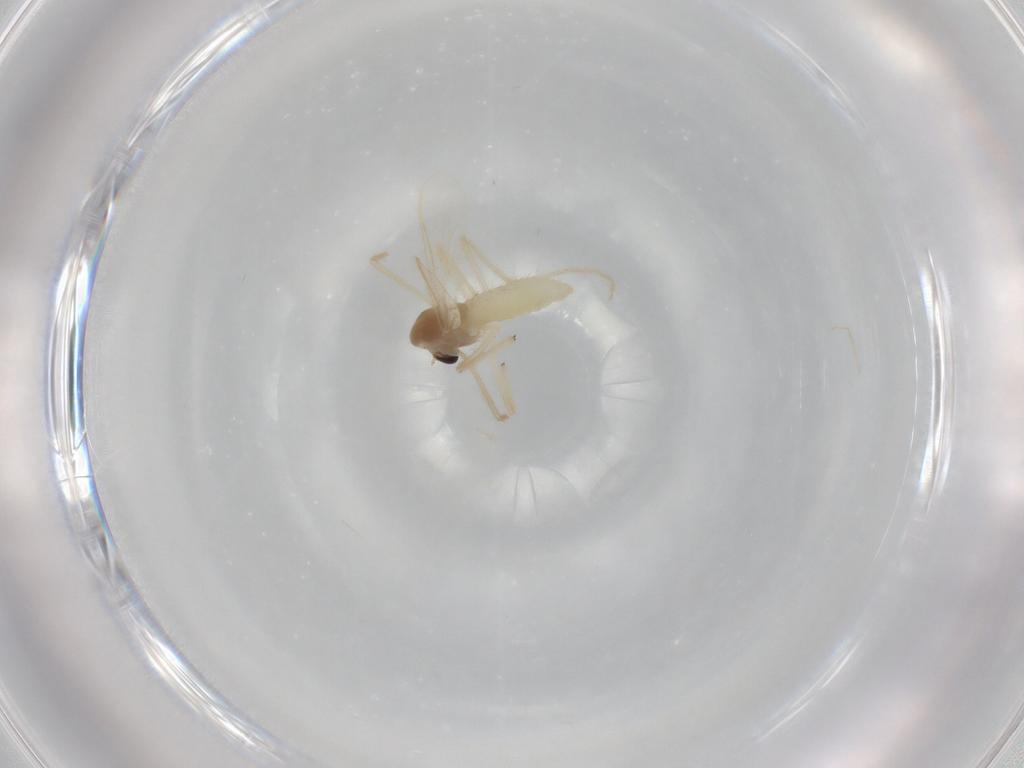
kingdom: Animalia
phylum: Arthropoda
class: Insecta
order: Diptera
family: Chironomidae
